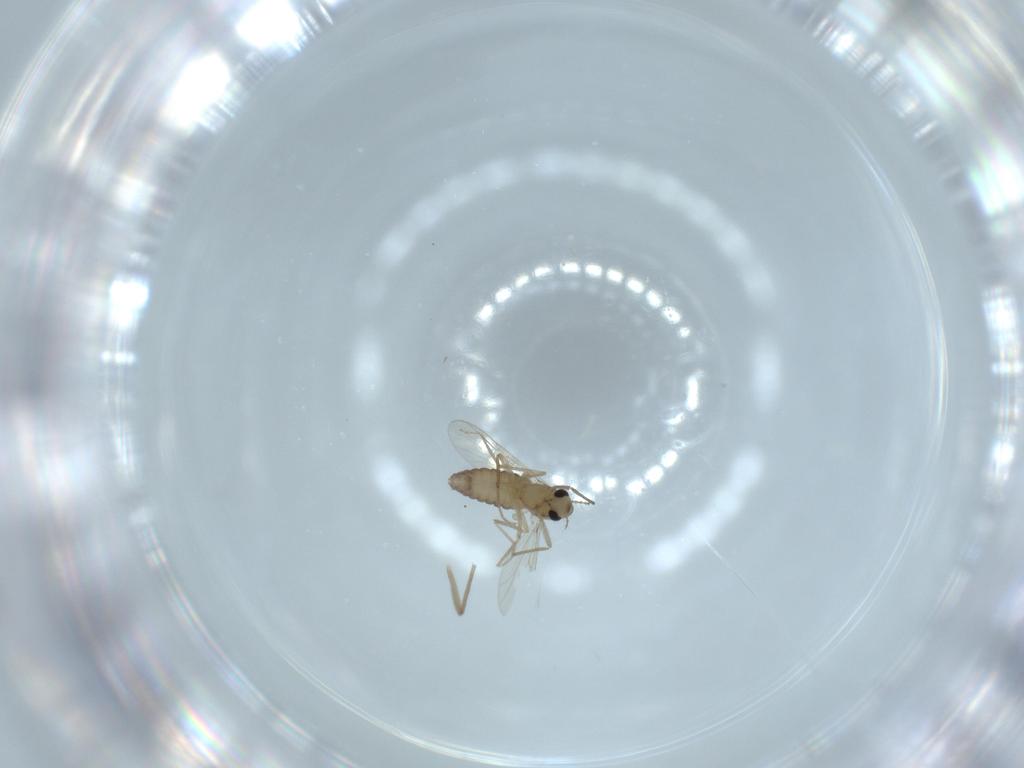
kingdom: Animalia
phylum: Arthropoda
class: Insecta
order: Diptera
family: Chironomidae
